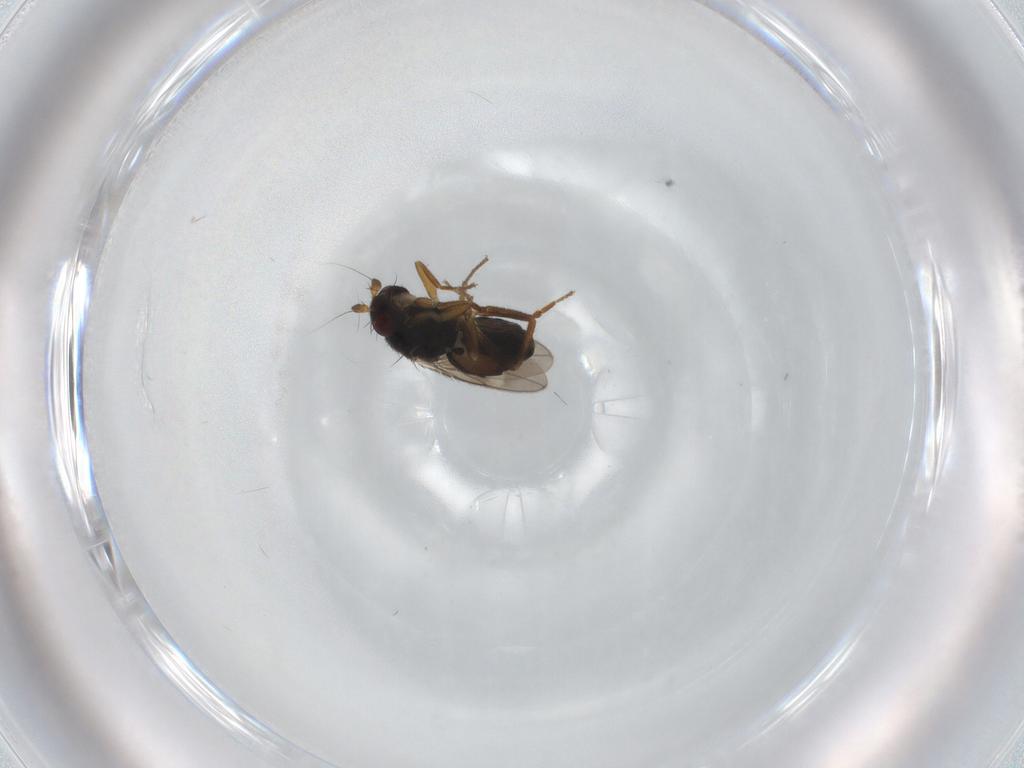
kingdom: Animalia
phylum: Arthropoda
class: Insecta
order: Diptera
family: Sphaeroceridae
